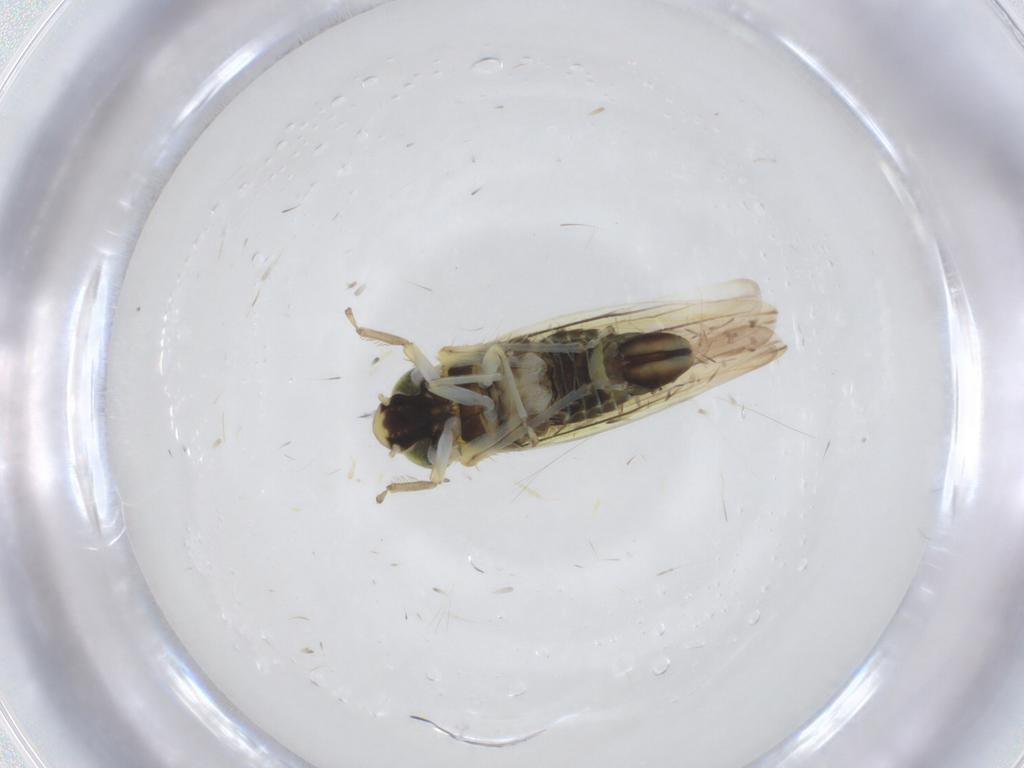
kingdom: Animalia
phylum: Arthropoda
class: Insecta
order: Hemiptera
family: Cicadellidae
